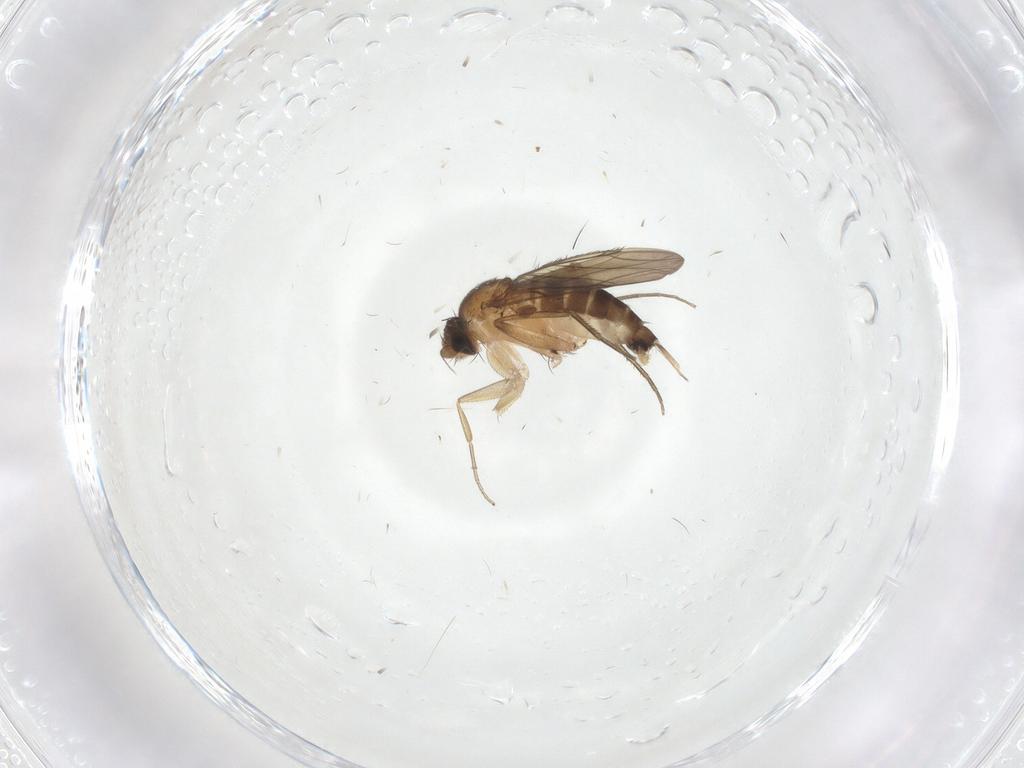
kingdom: Animalia
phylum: Arthropoda
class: Insecta
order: Diptera
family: Phoridae
